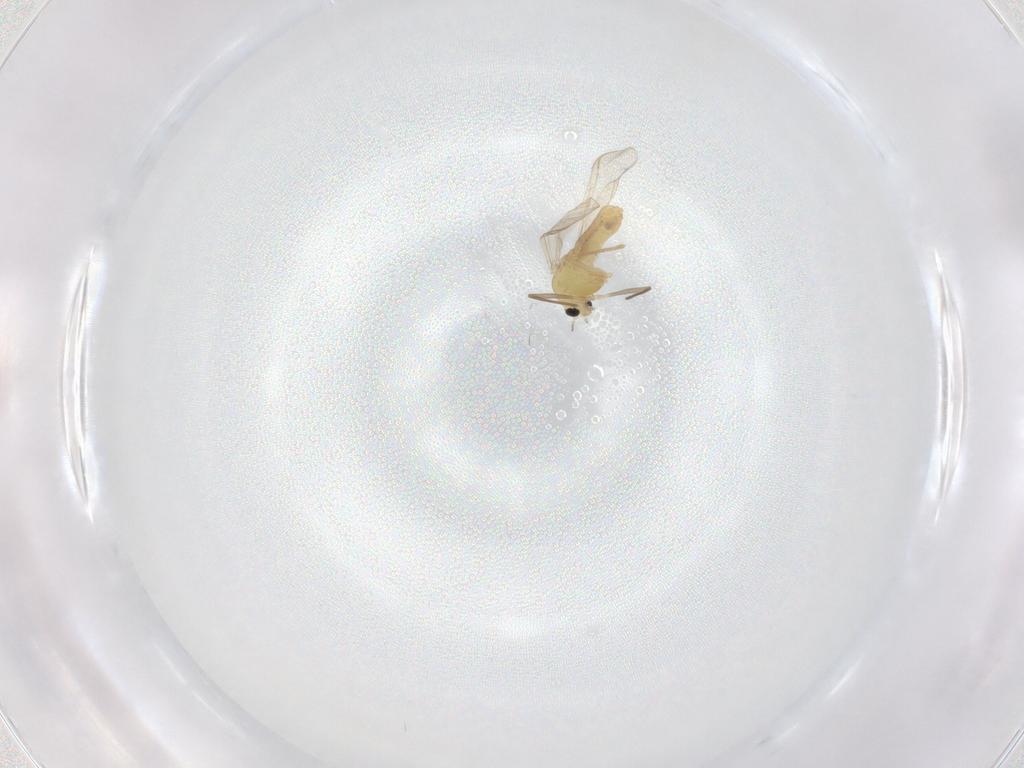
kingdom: Animalia
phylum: Arthropoda
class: Insecta
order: Diptera
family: Chironomidae
